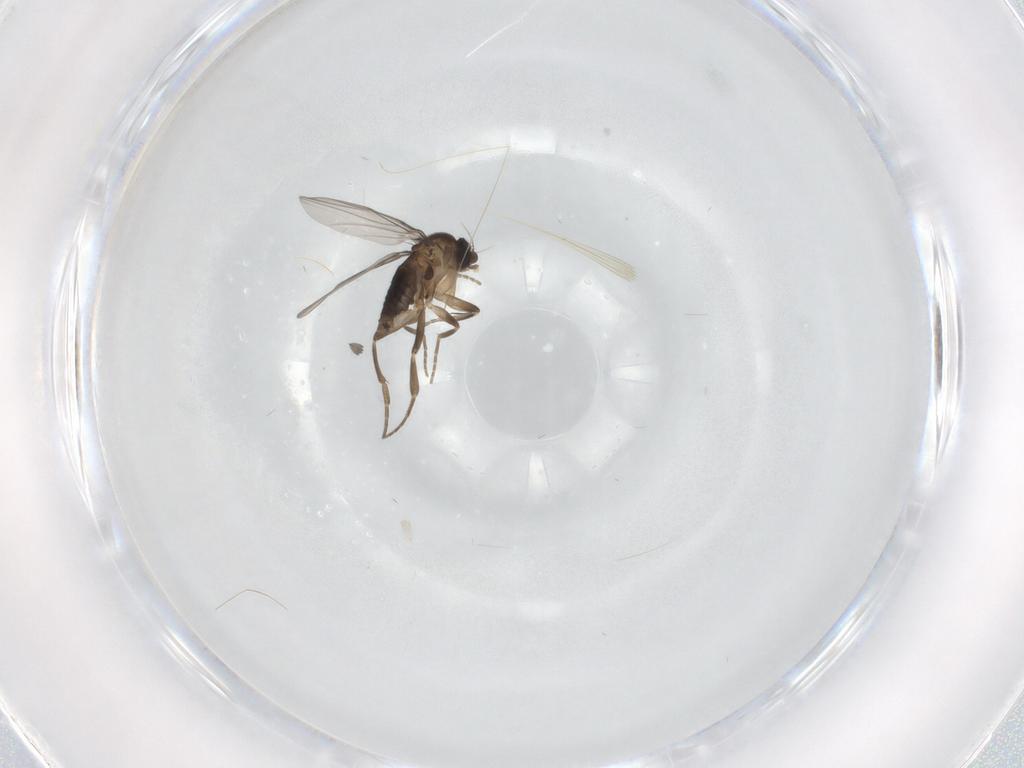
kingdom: Animalia
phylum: Arthropoda
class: Insecta
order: Diptera
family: Phoridae
